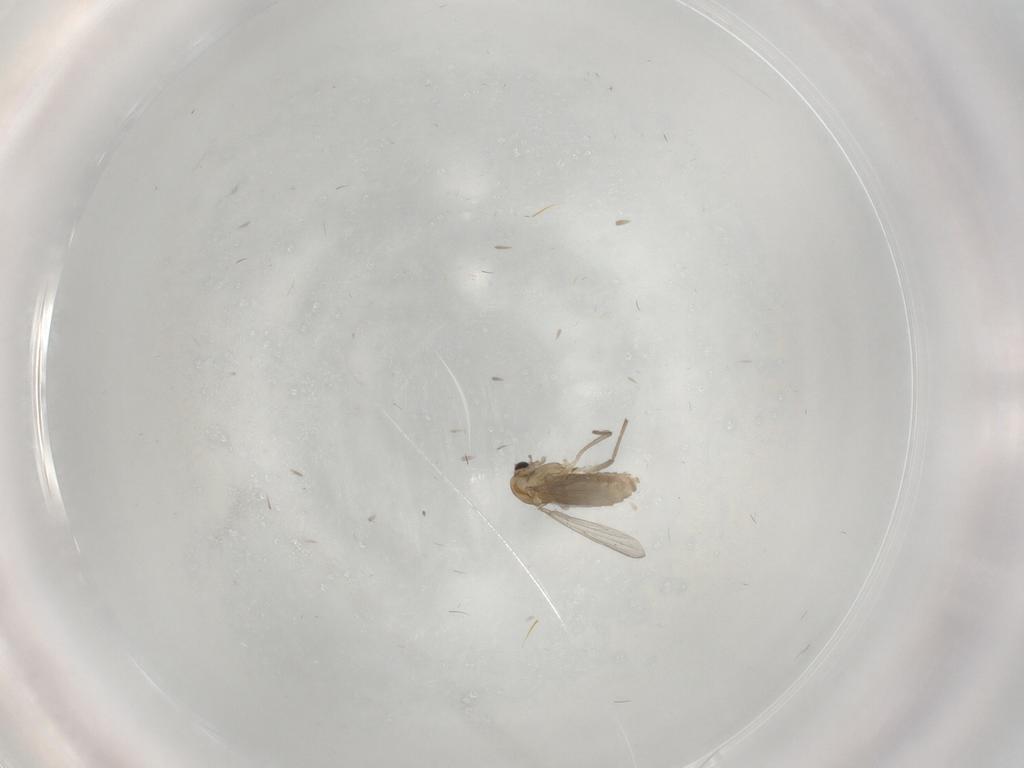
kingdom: Animalia
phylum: Arthropoda
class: Insecta
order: Diptera
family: Chironomidae
